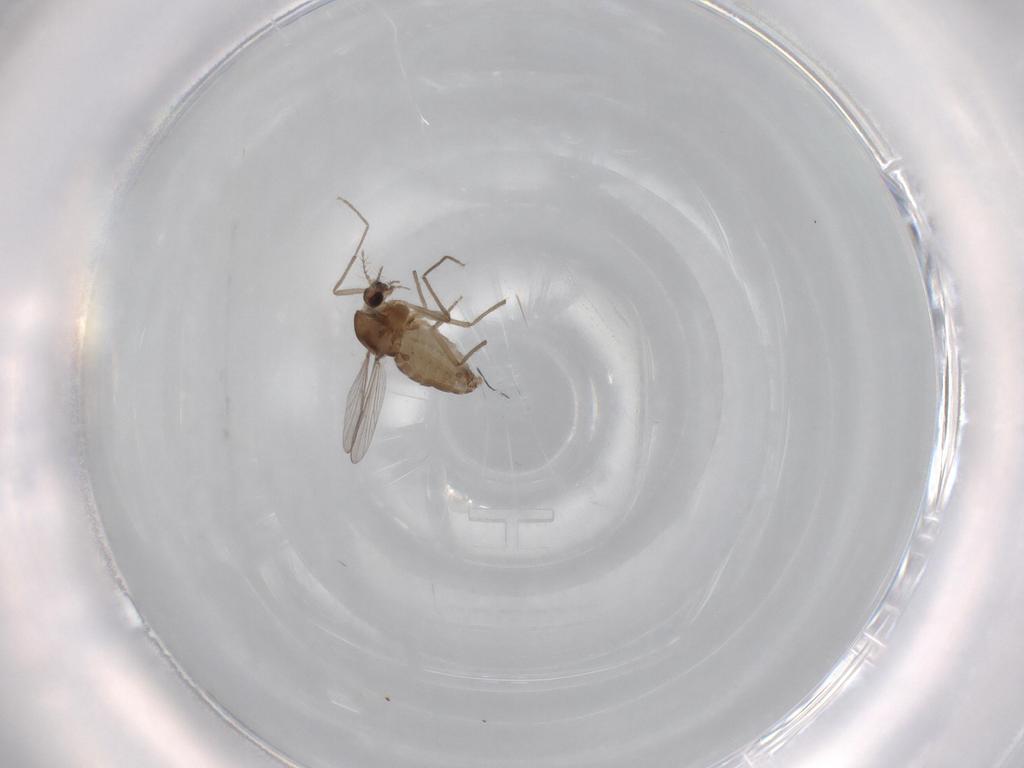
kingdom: Animalia
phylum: Arthropoda
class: Insecta
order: Diptera
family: Chironomidae
